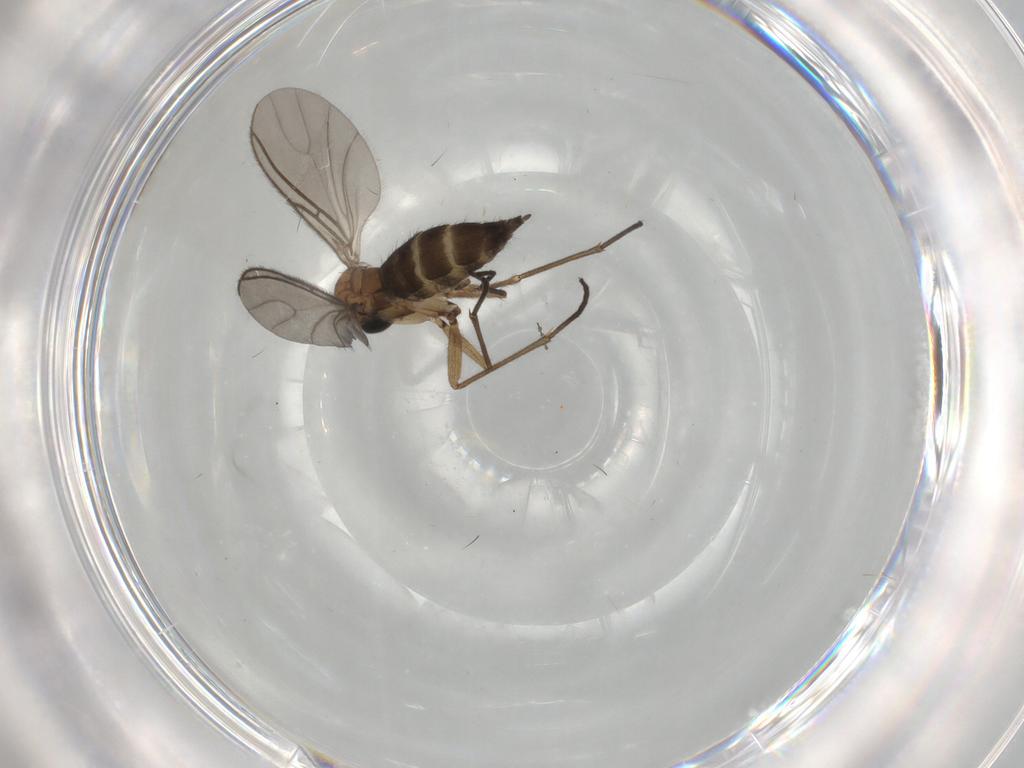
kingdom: Animalia
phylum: Arthropoda
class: Insecta
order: Diptera
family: Sciaridae
